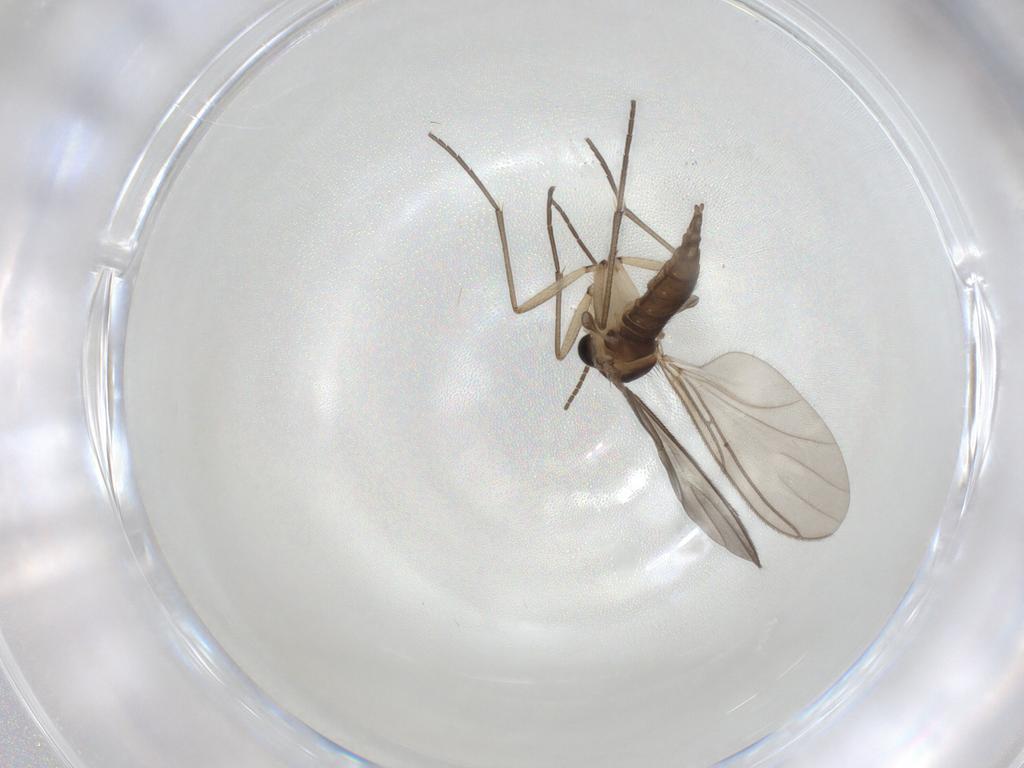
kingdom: Animalia
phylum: Arthropoda
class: Insecta
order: Diptera
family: Sciaridae
